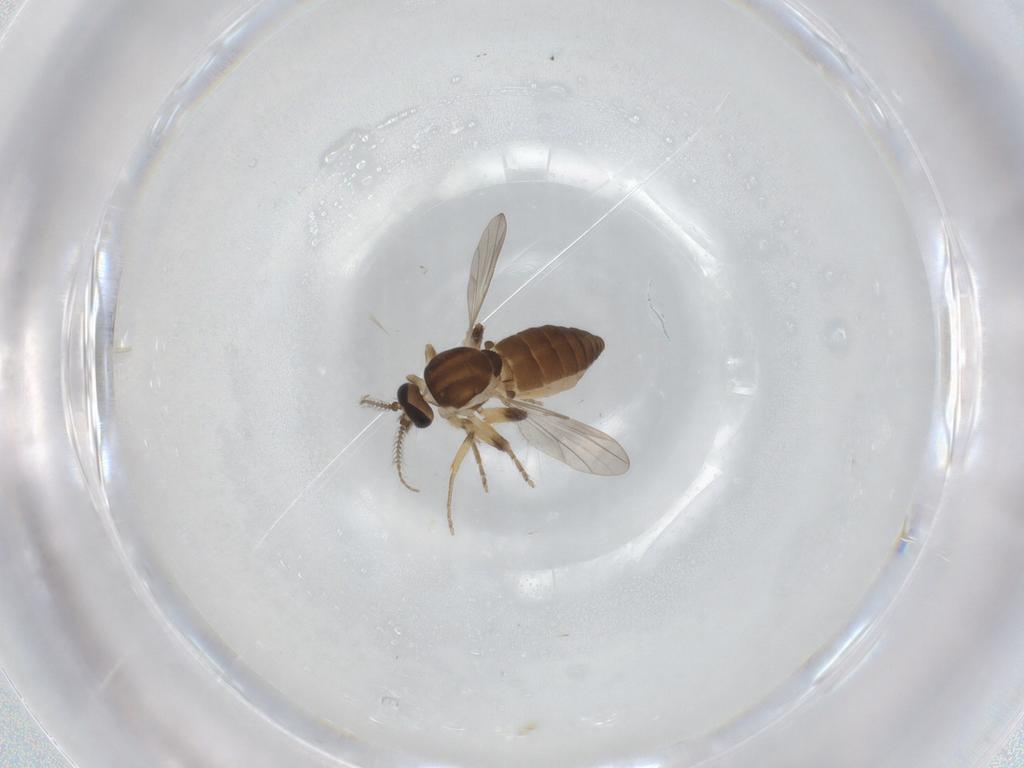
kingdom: Animalia
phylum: Arthropoda
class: Insecta
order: Diptera
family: Ceratopogonidae
